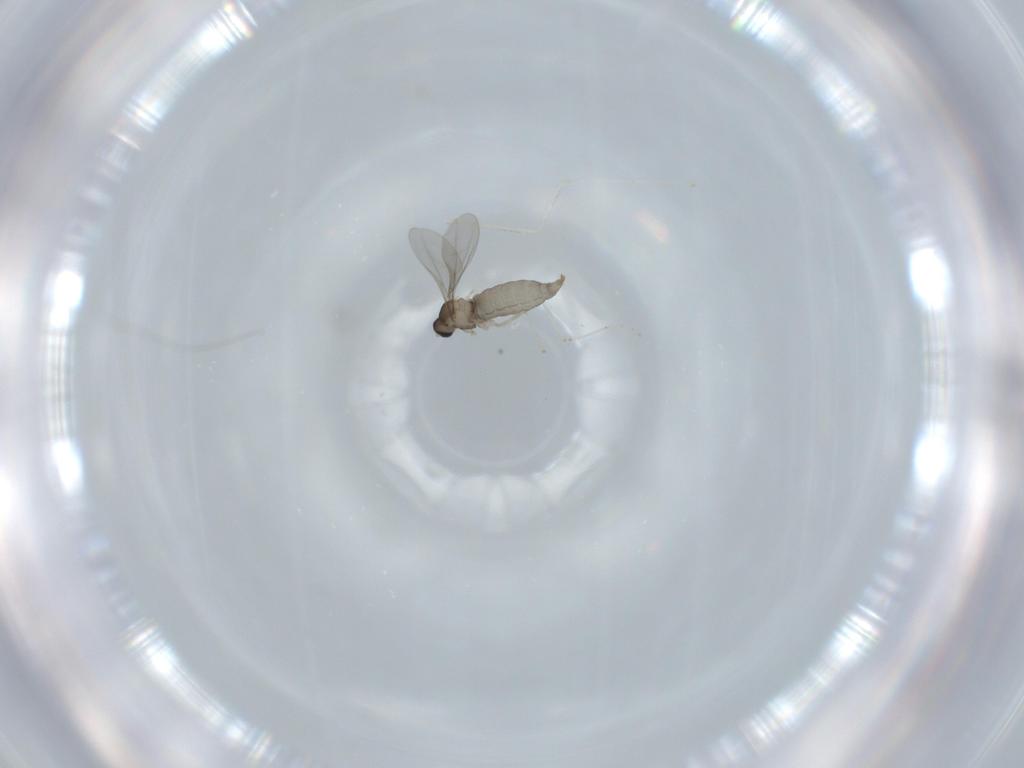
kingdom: Animalia
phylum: Arthropoda
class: Insecta
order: Diptera
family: Cecidomyiidae
